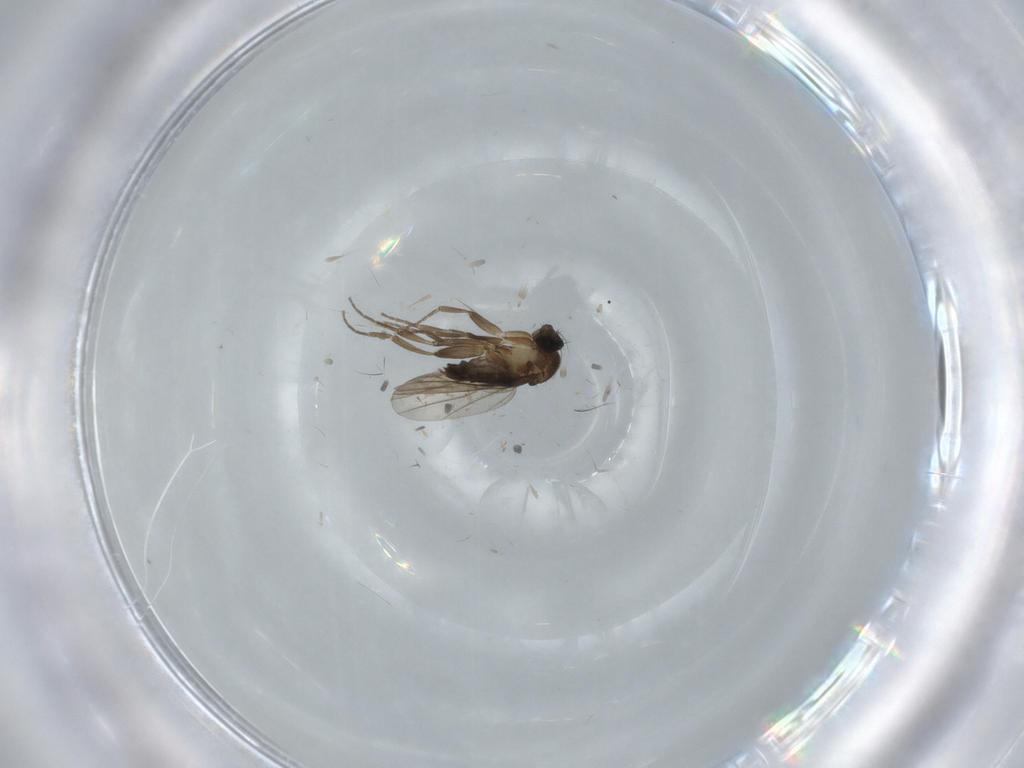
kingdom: Animalia
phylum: Arthropoda
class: Insecta
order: Diptera
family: Phoridae
